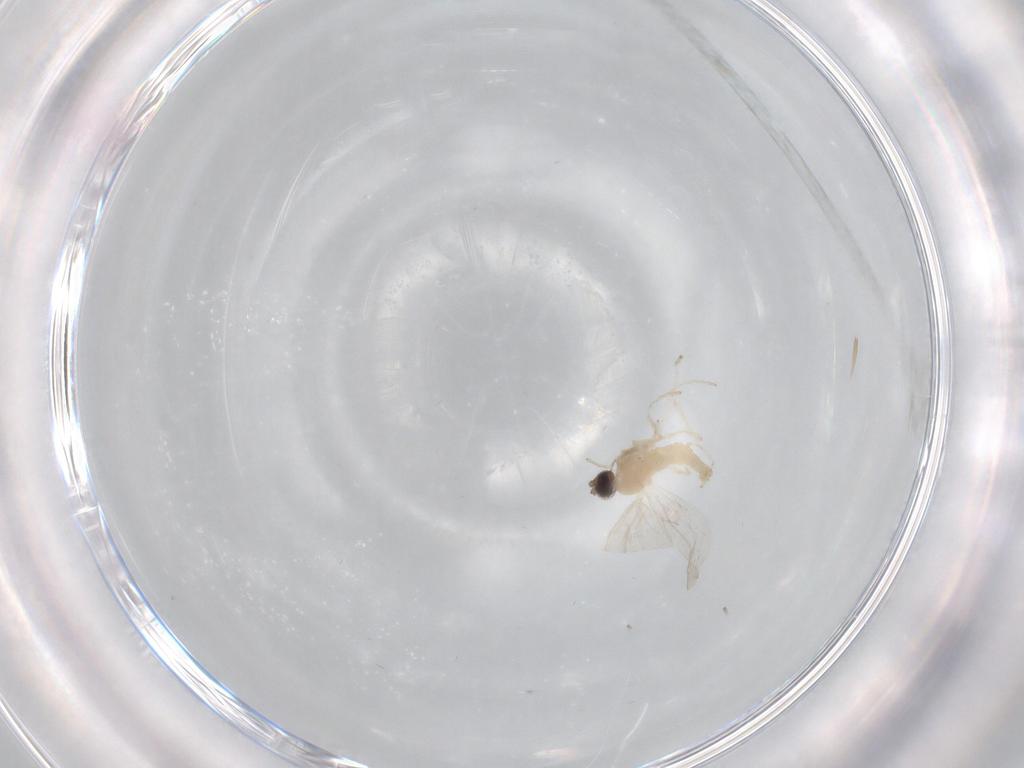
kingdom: Animalia
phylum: Arthropoda
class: Insecta
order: Diptera
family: Cecidomyiidae
